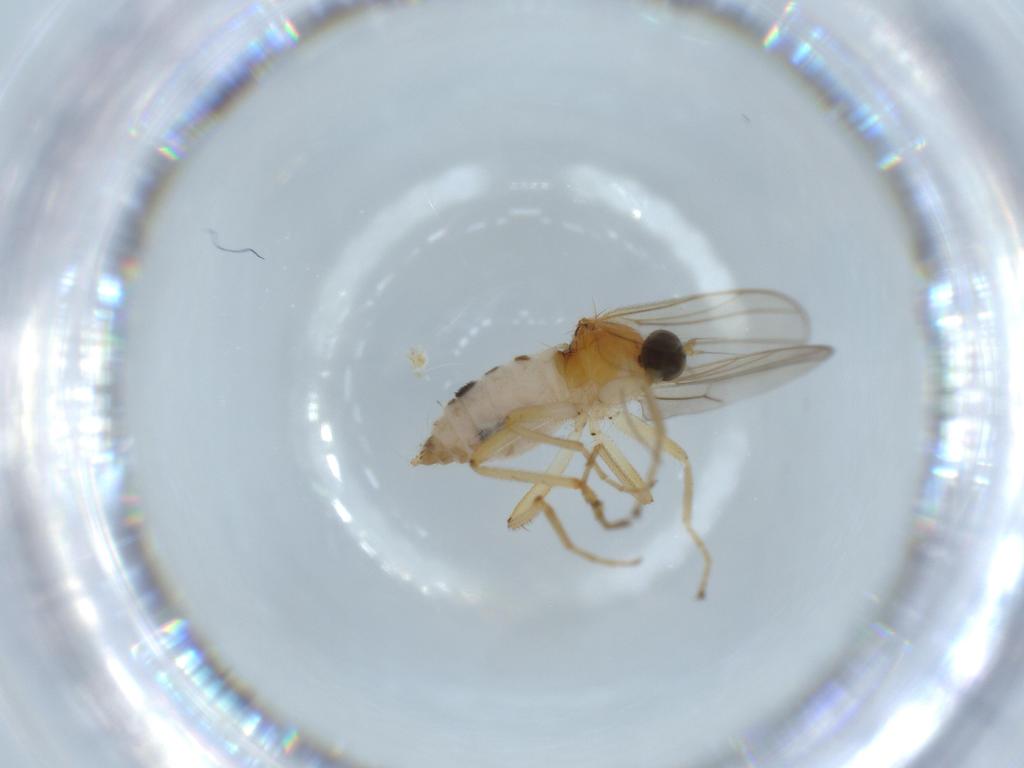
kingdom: Animalia
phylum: Arthropoda
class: Insecta
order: Diptera
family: Hybotidae
